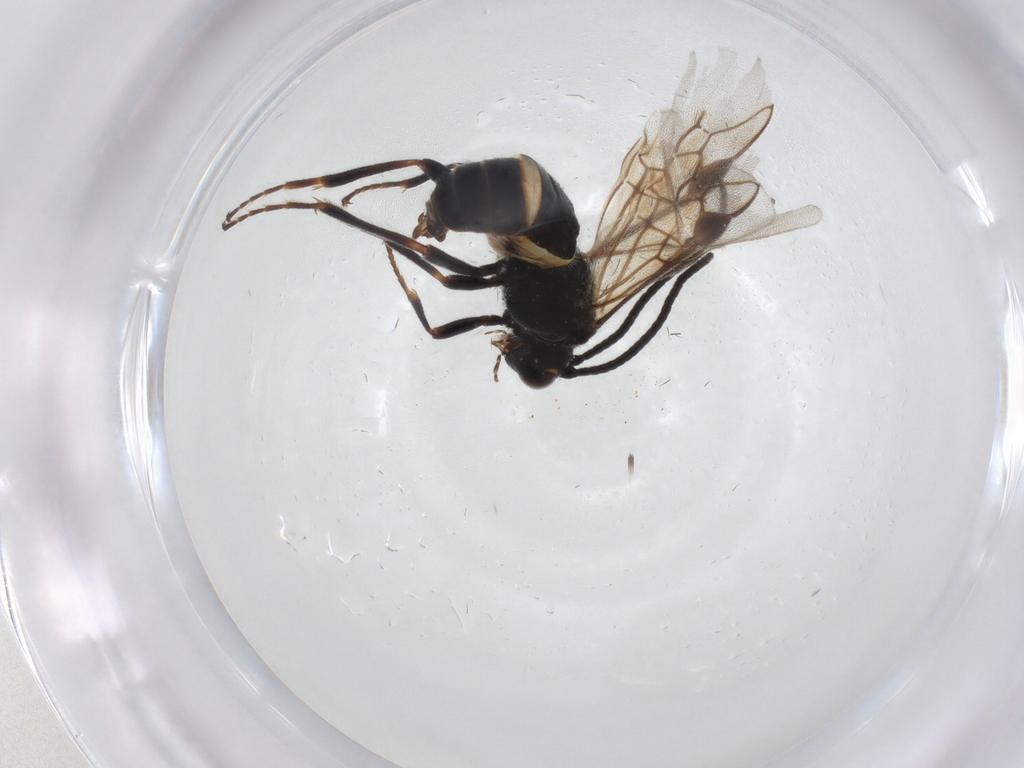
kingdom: Animalia
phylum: Arthropoda
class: Insecta
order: Hymenoptera
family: Braconidae
